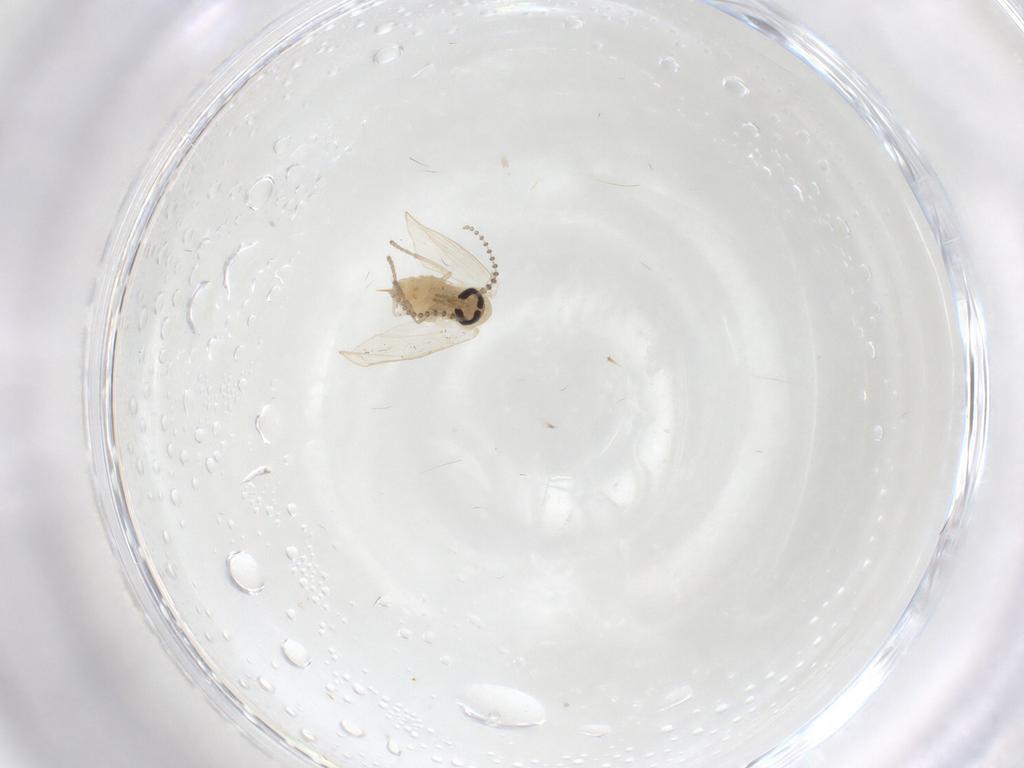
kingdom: Animalia
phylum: Arthropoda
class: Insecta
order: Diptera
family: Psychodidae
